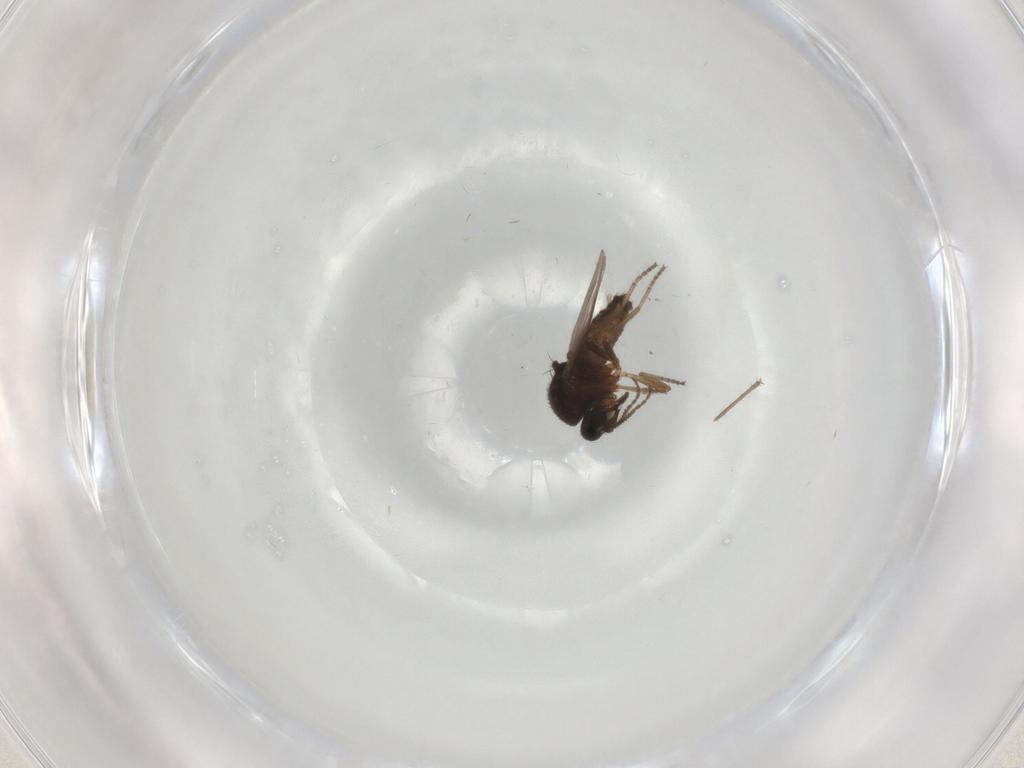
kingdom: Animalia
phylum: Arthropoda
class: Insecta
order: Diptera
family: Ceratopogonidae
